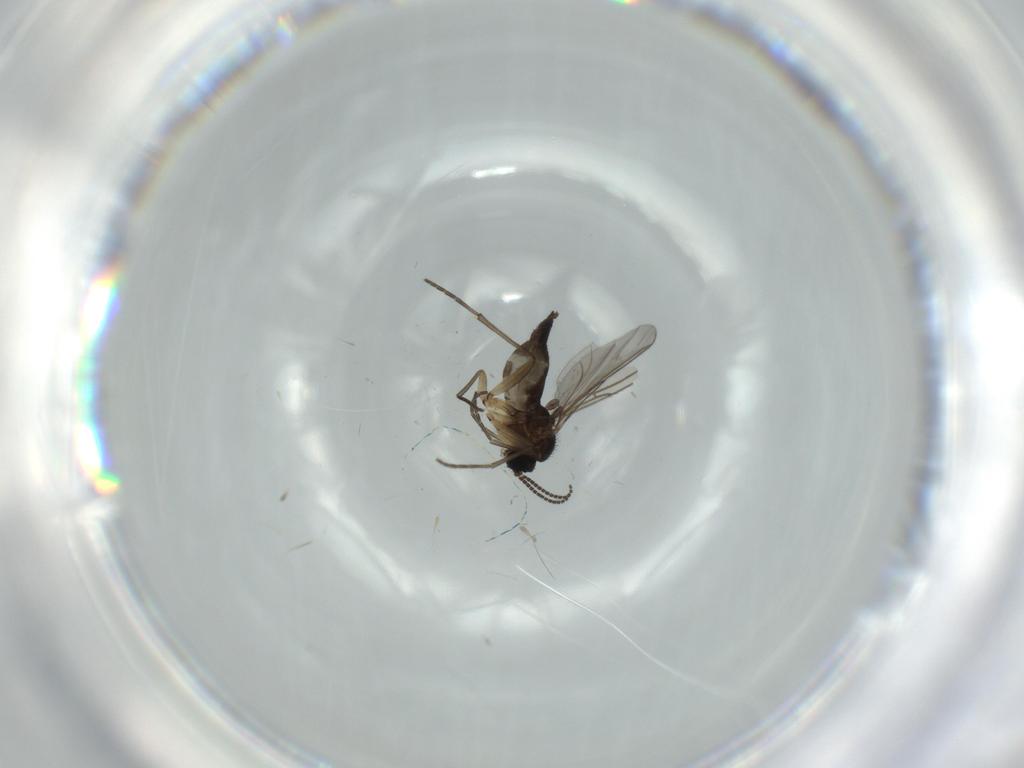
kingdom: Animalia
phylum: Arthropoda
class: Insecta
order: Diptera
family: Sciaridae
